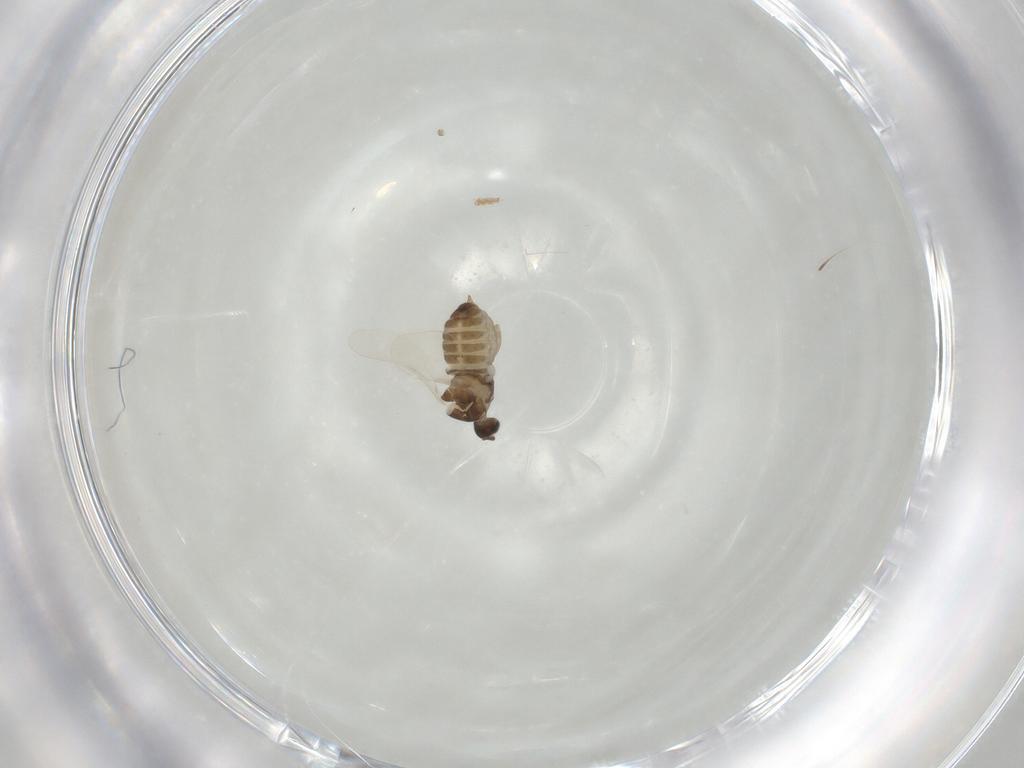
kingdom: Animalia
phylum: Arthropoda
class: Insecta
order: Diptera
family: Cecidomyiidae
